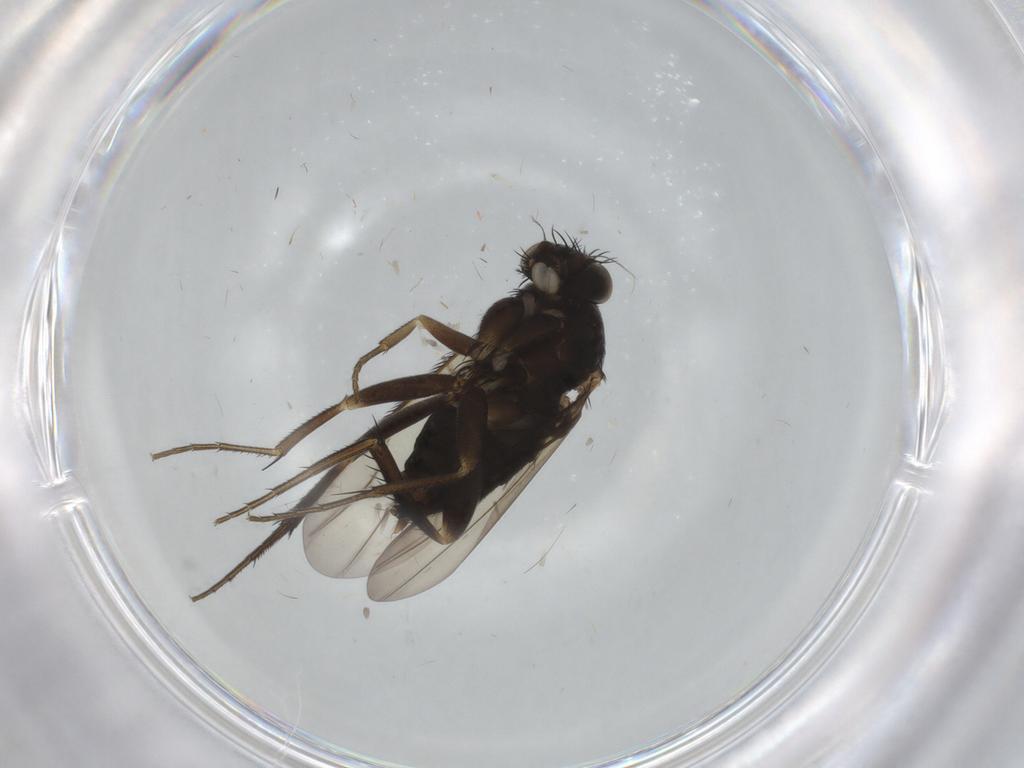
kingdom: Animalia
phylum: Arthropoda
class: Insecta
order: Diptera
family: Phoridae
